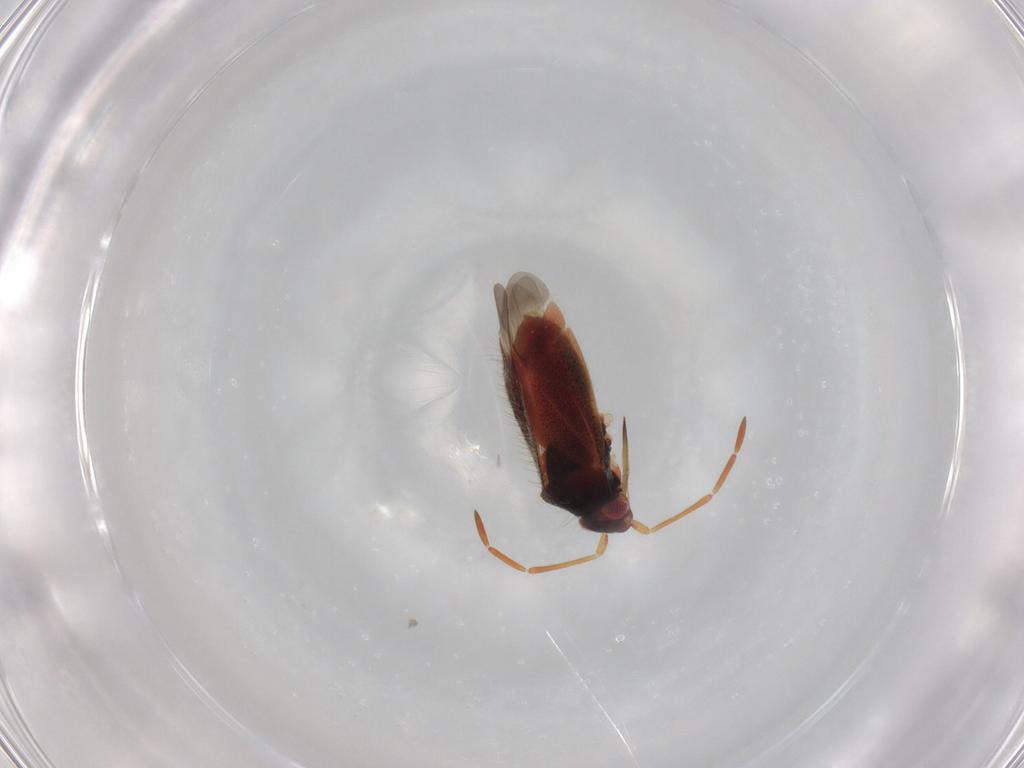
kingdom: Animalia
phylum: Arthropoda
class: Insecta
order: Hemiptera
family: Miridae
